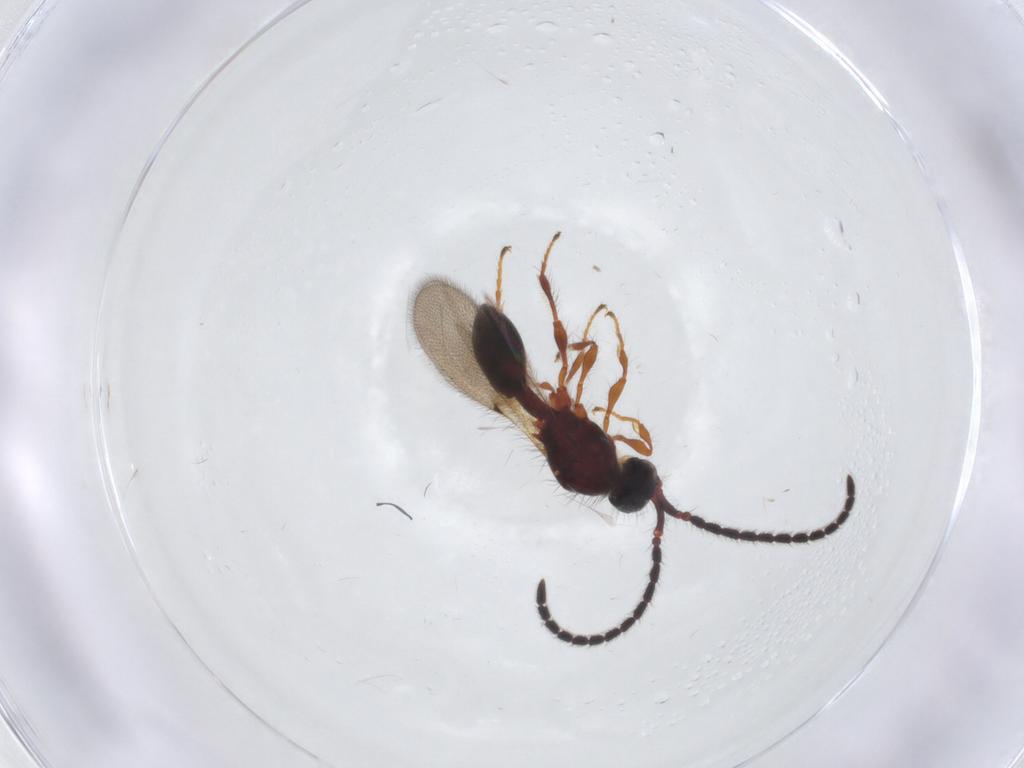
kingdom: Animalia
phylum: Arthropoda
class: Insecta
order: Hymenoptera
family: Diapriidae
